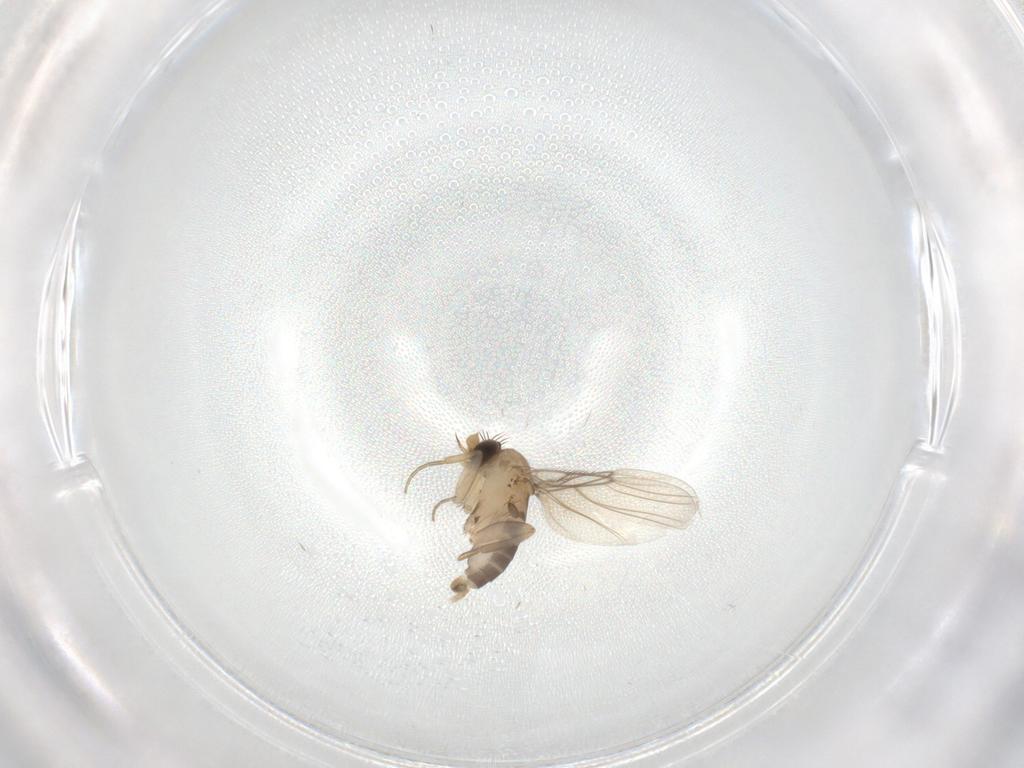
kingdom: Animalia
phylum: Arthropoda
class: Insecta
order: Diptera
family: Phoridae
